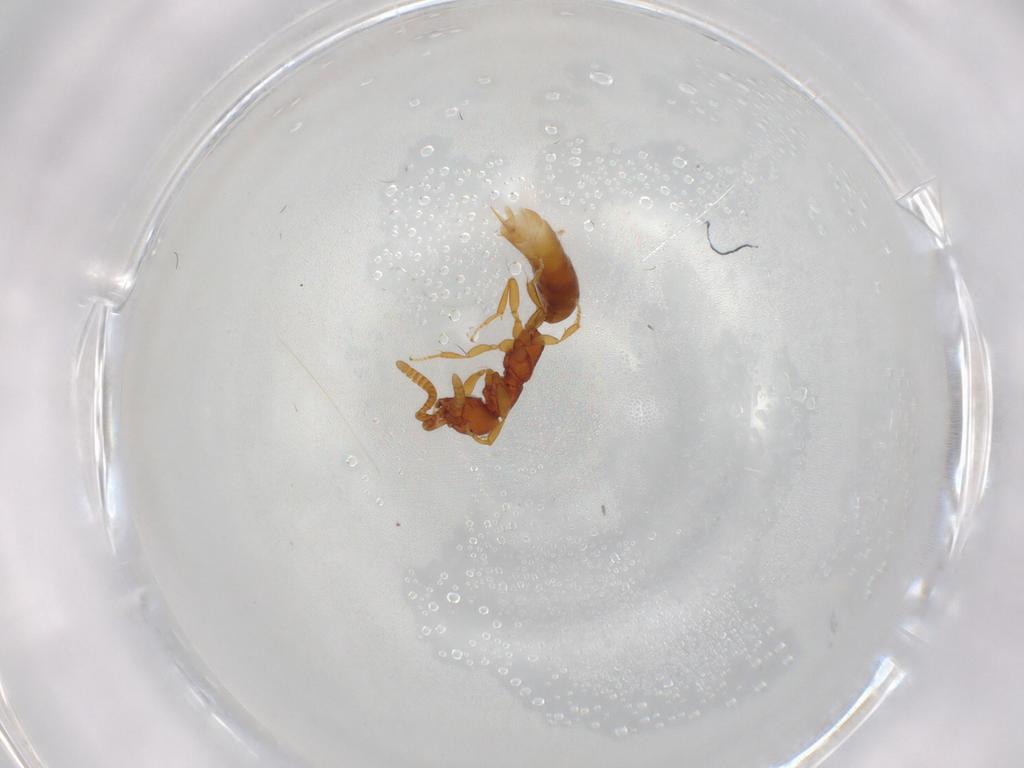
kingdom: Animalia
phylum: Arthropoda
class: Insecta
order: Hymenoptera
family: Bethylidae
